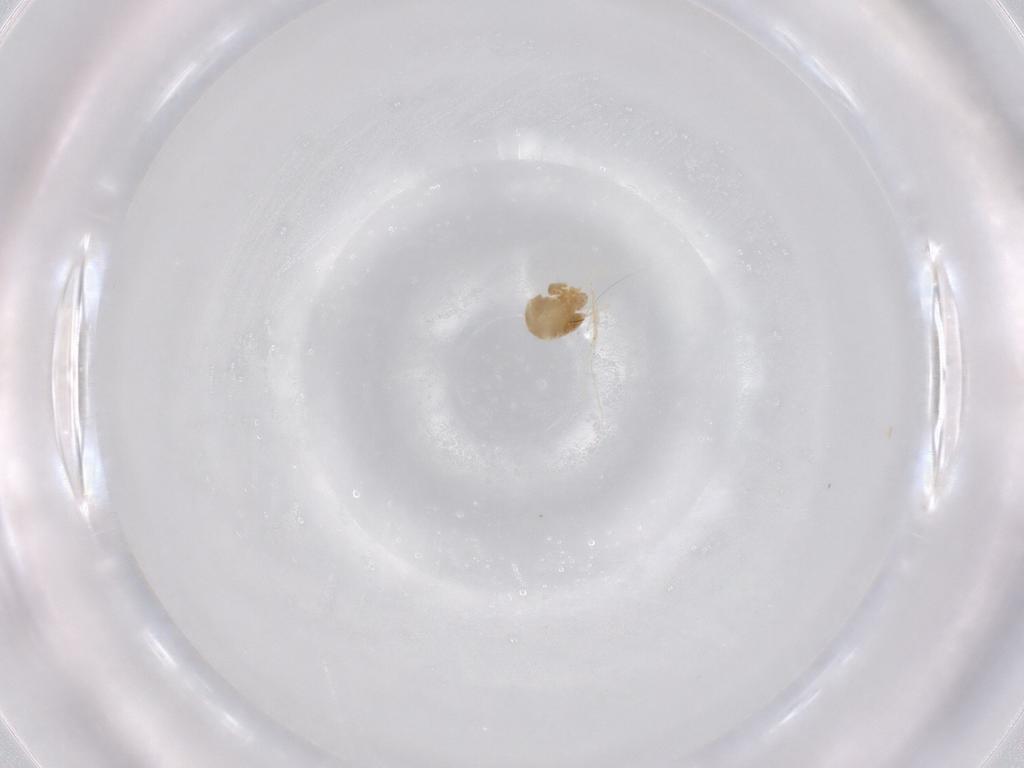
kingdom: Animalia
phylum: Arthropoda
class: Arachnida
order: Trombidiformes
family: Tetranychidae
